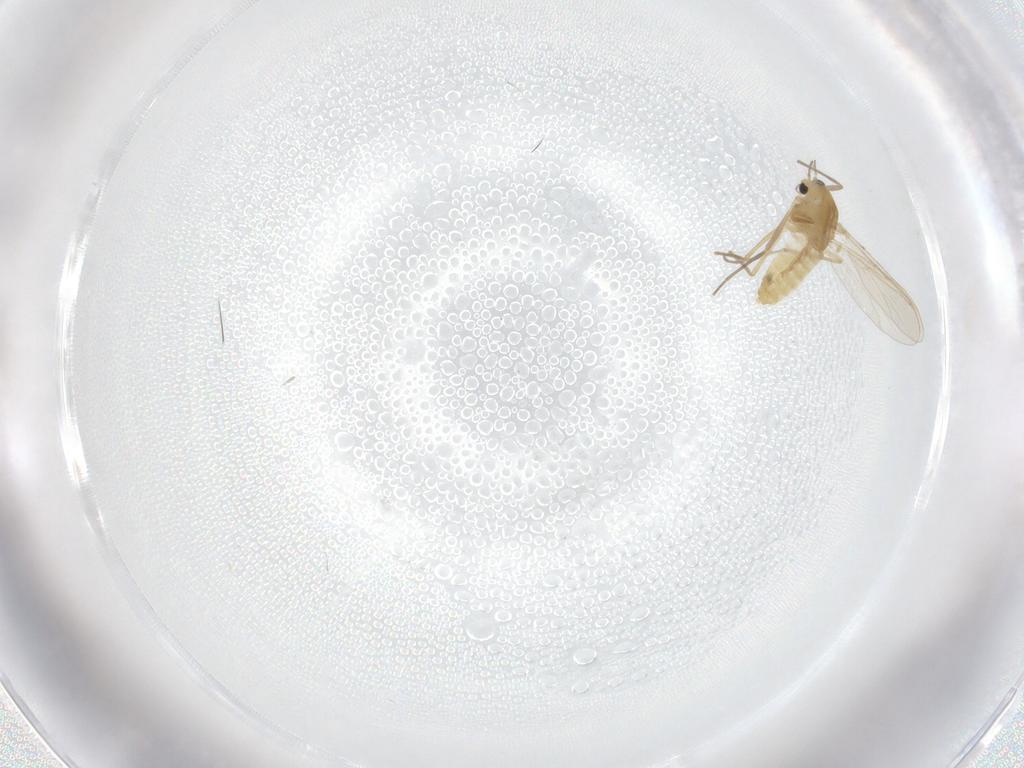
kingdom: Animalia
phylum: Arthropoda
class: Insecta
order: Diptera
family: Chironomidae
